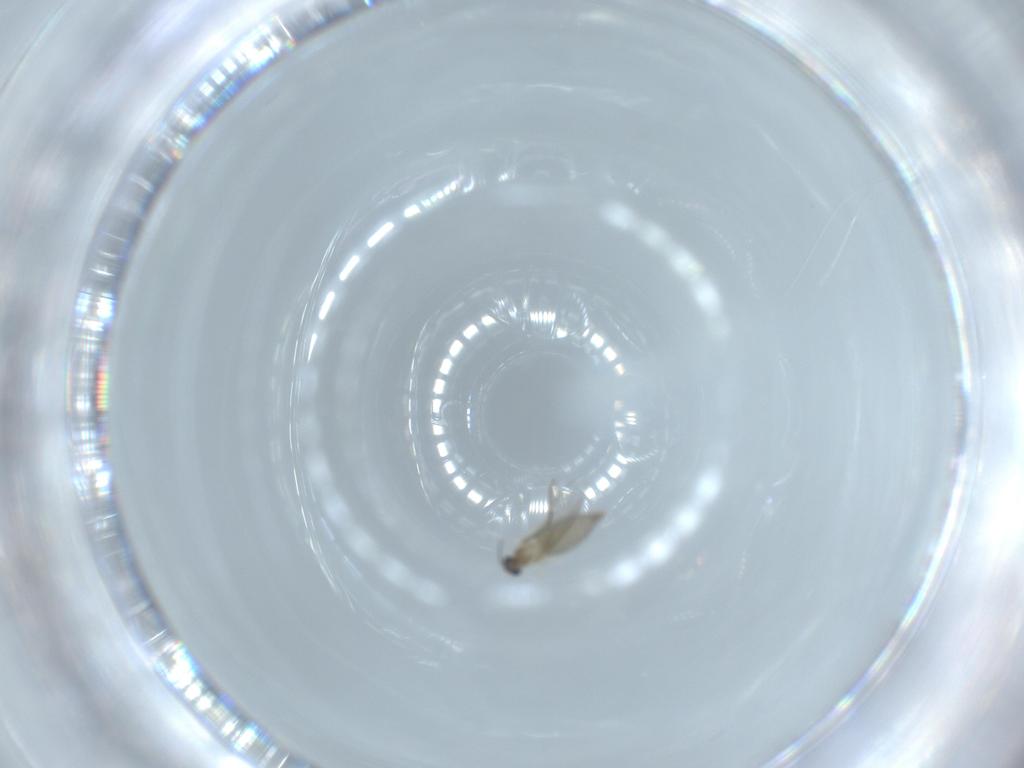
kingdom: Animalia
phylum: Arthropoda
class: Insecta
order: Diptera
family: Cecidomyiidae
